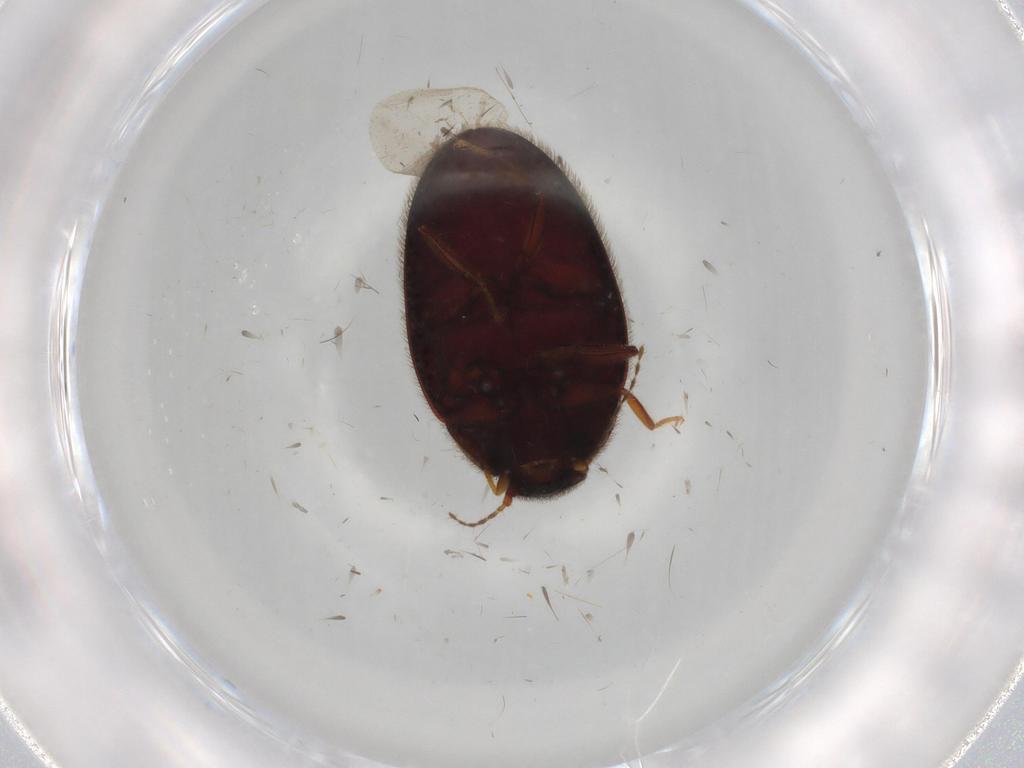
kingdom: Animalia
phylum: Arthropoda
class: Insecta
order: Coleoptera
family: Limnichidae
